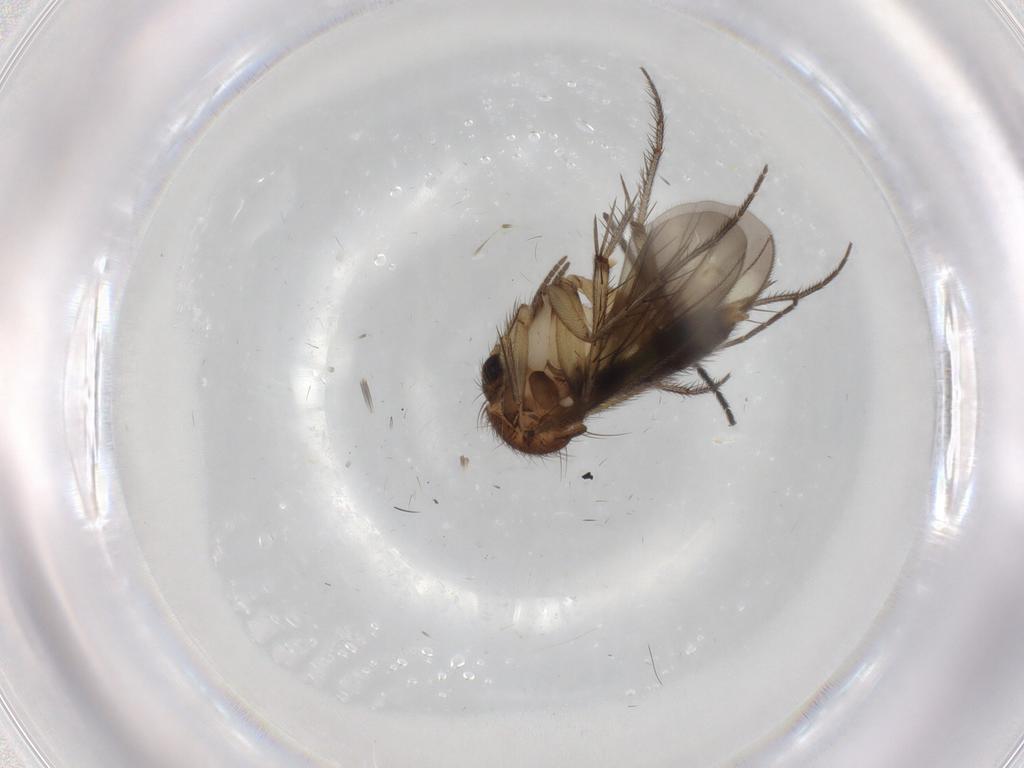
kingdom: Animalia
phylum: Arthropoda
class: Insecta
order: Diptera
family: Mycetophilidae
